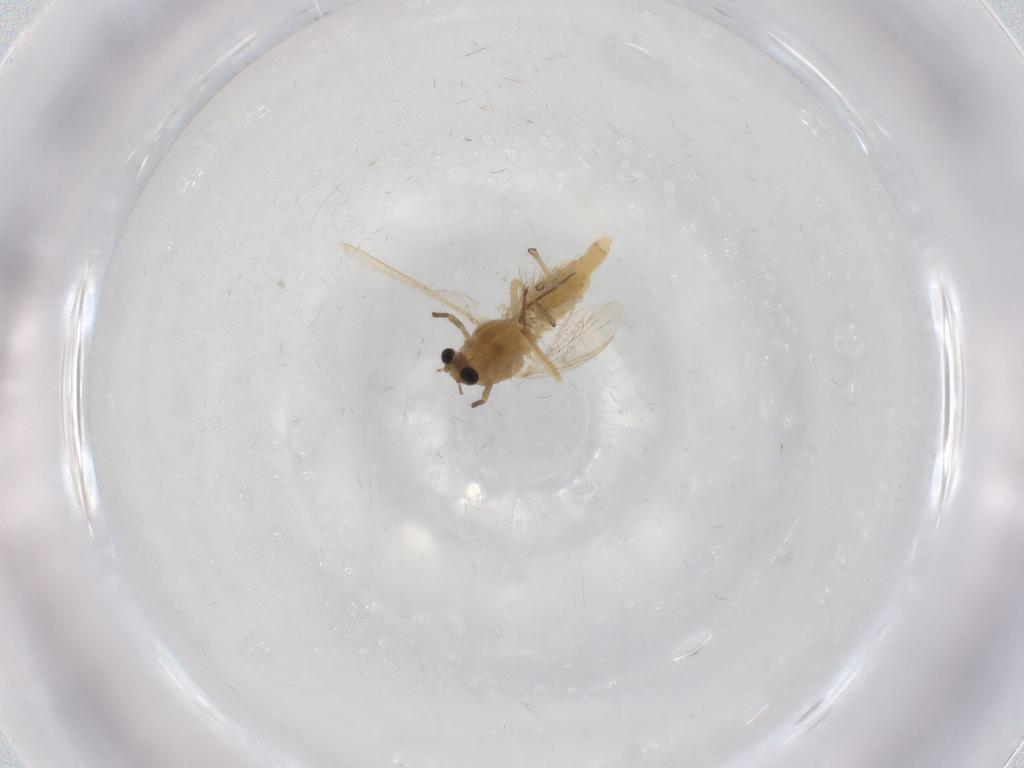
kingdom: Animalia
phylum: Arthropoda
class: Insecta
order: Diptera
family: Chironomidae
